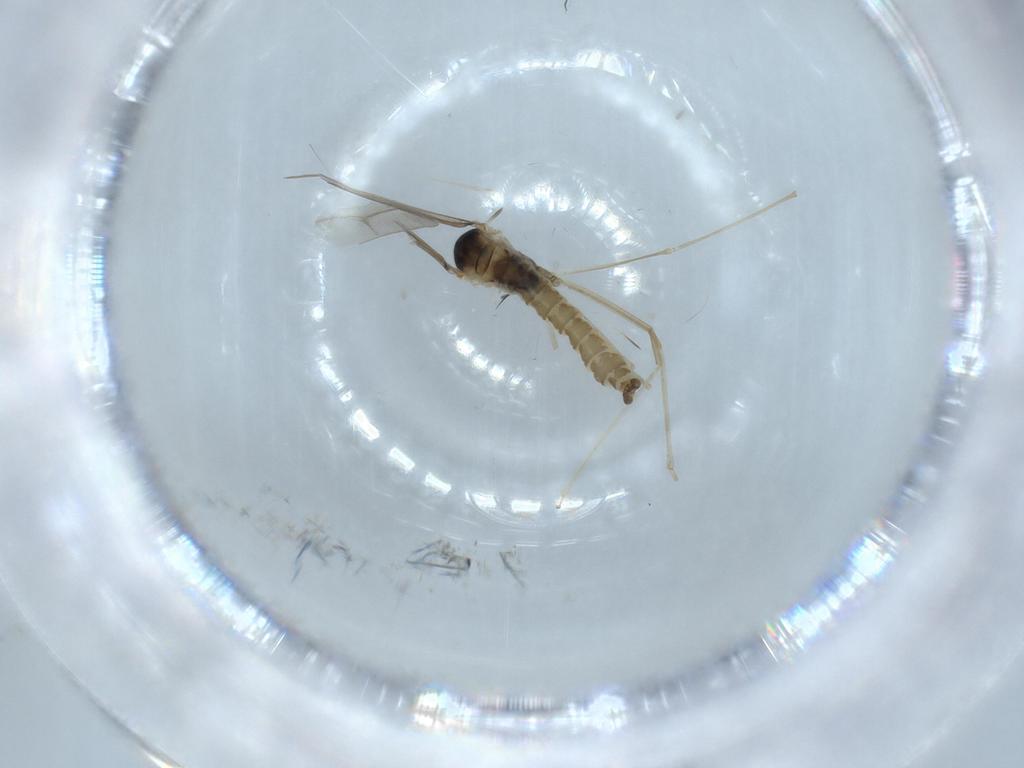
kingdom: Animalia
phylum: Arthropoda
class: Insecta
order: Diptera
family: Cecidomyiidae
